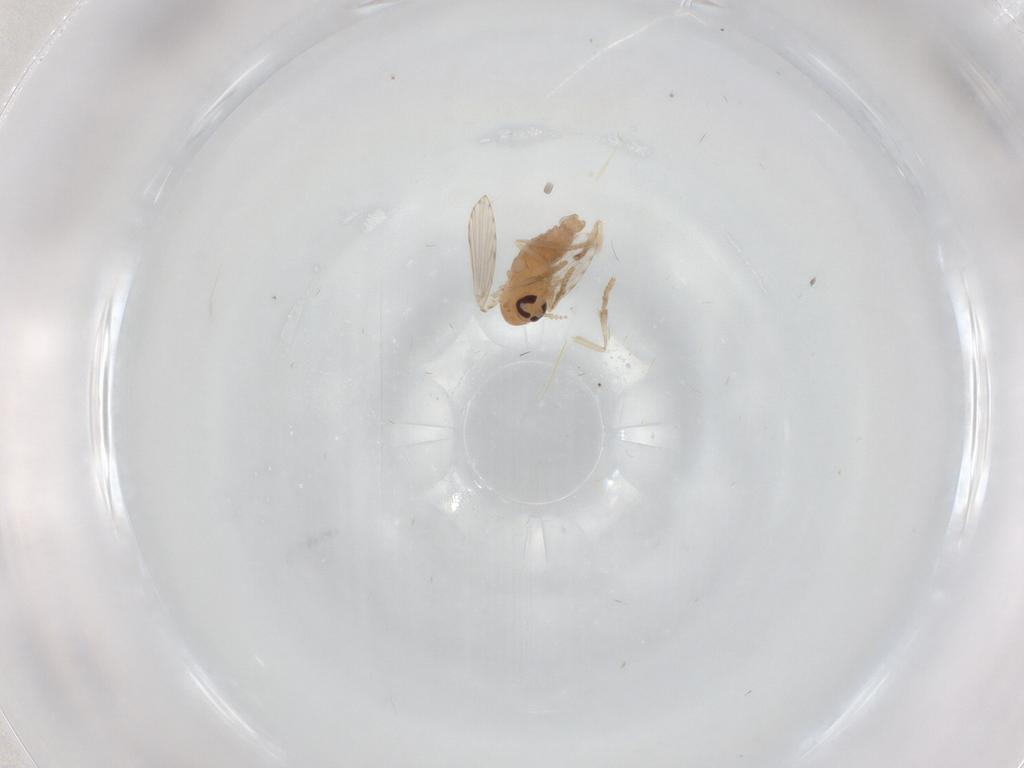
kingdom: Animalia
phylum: Arthropoda
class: Insecta
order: Diptera
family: Psychodidae
